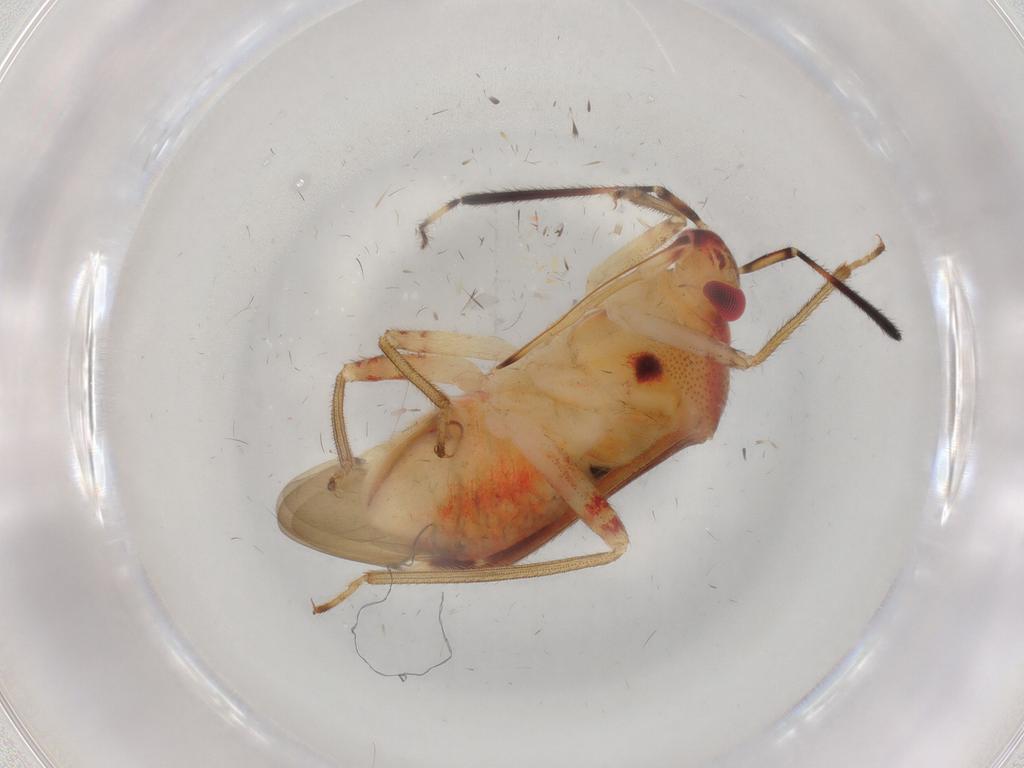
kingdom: Animalia
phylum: Arthropoda
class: Insecta
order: Hemiptera
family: Miridae
